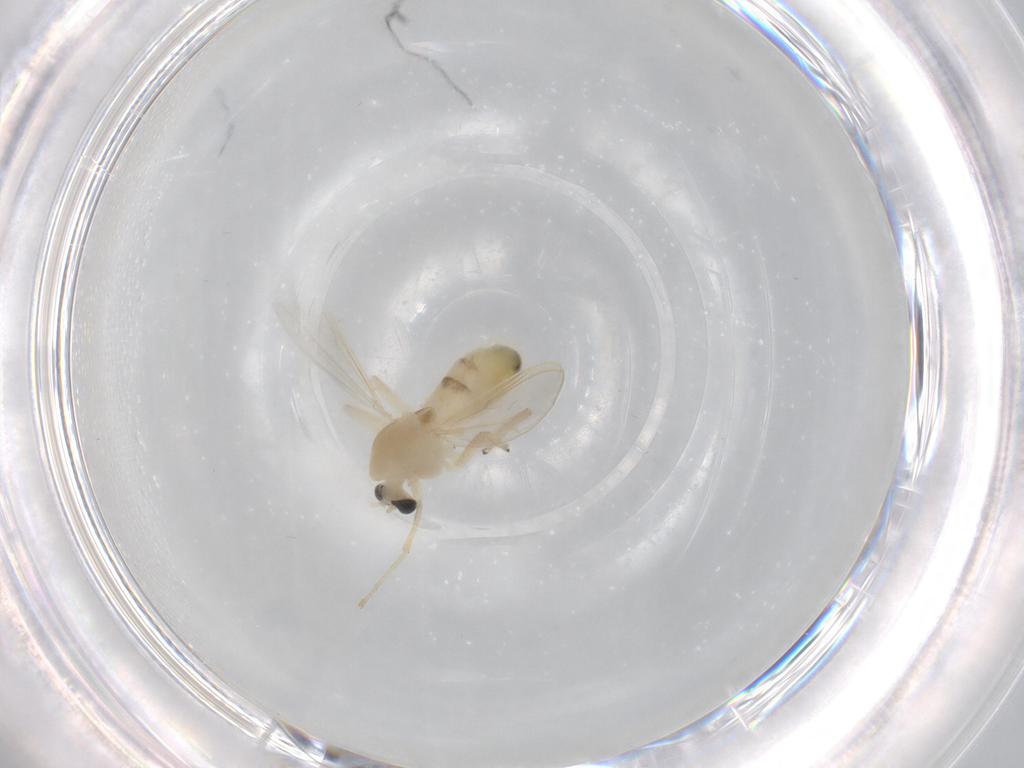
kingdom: Animalia
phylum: Arthropoda
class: Insecta
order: Diptera
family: Chironomidae
